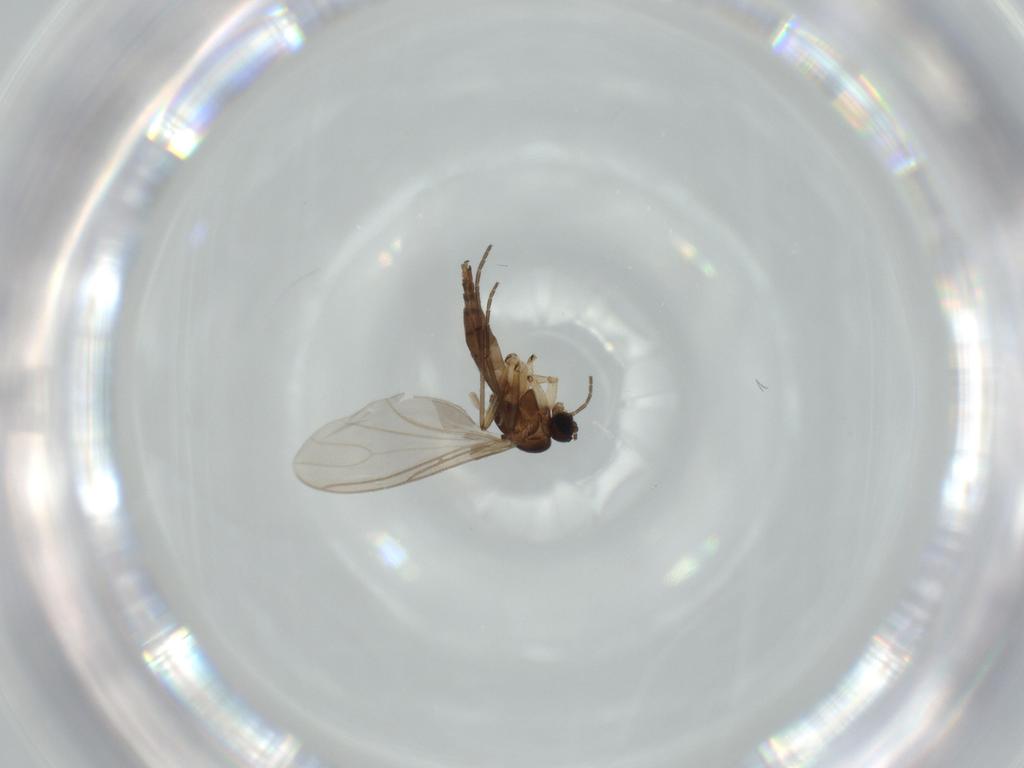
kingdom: Animalia
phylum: Arthropoda
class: Insecta
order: Diptera
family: Sciaridae
